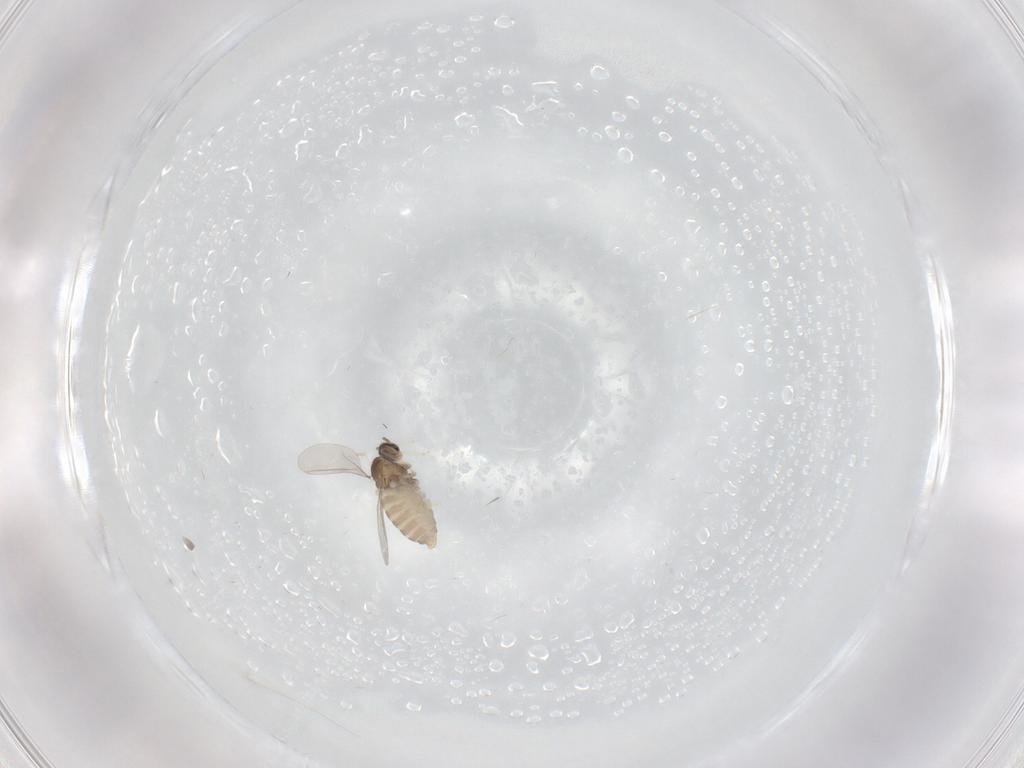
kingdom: Animalia
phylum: Arthropoda
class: Insecta
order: Diptera
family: Cecidomyiidae
